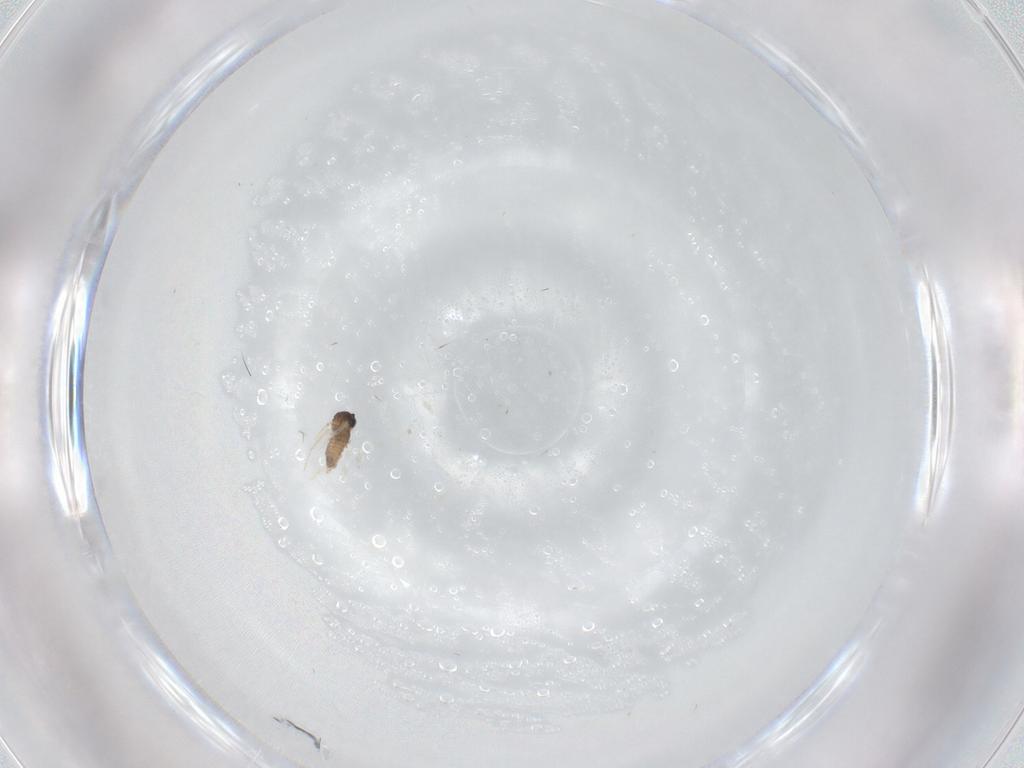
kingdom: Animalia
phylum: Arthropoda
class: Insecta
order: Diptera
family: Cecidomyiidae
